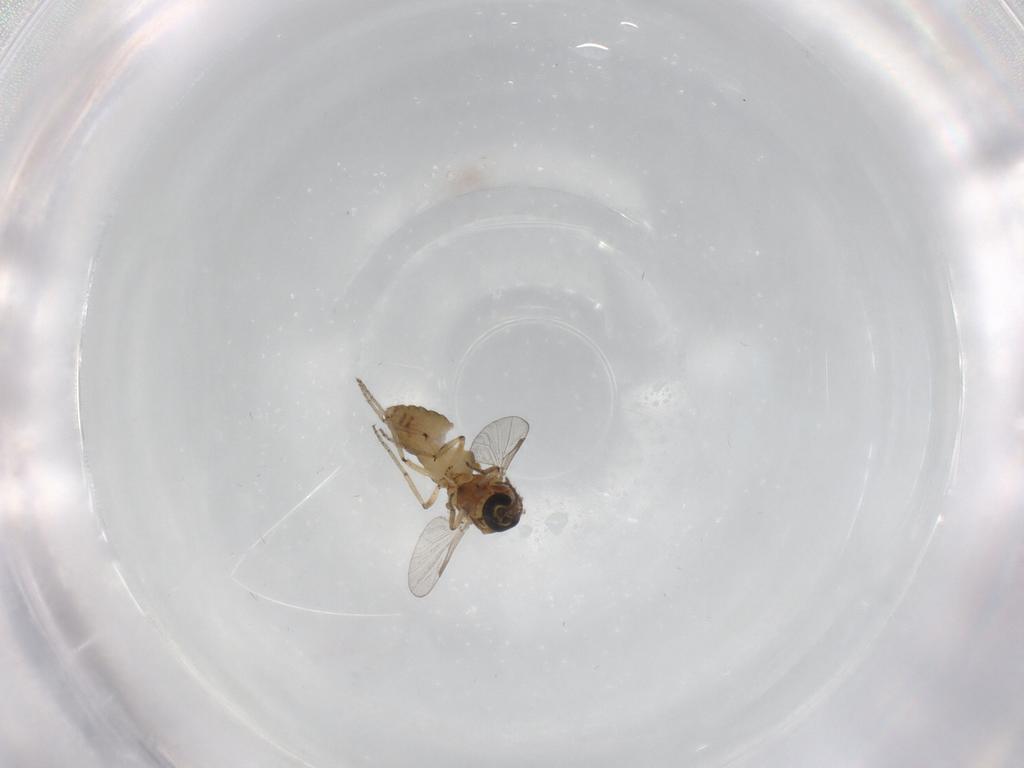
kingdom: Animalia
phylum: Arthropoda
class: Insecta
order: Diptera
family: Ceratopogonidae
